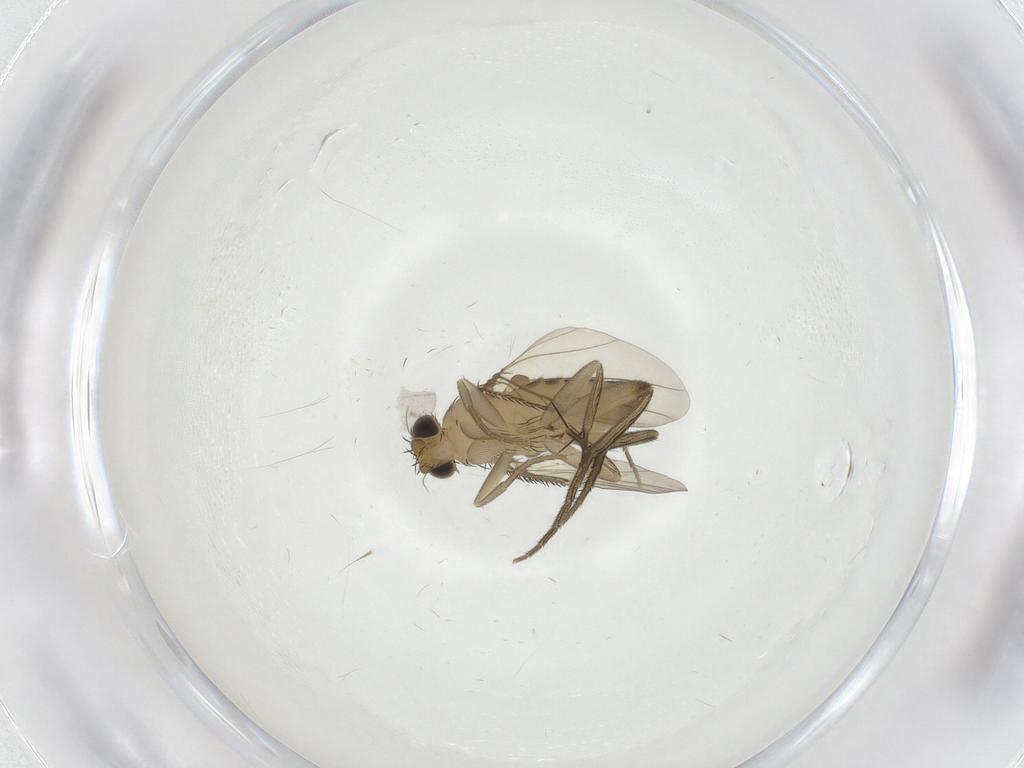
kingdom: Animalia
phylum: Arthropoda
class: Insecta
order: Diptera
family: Phoridae
